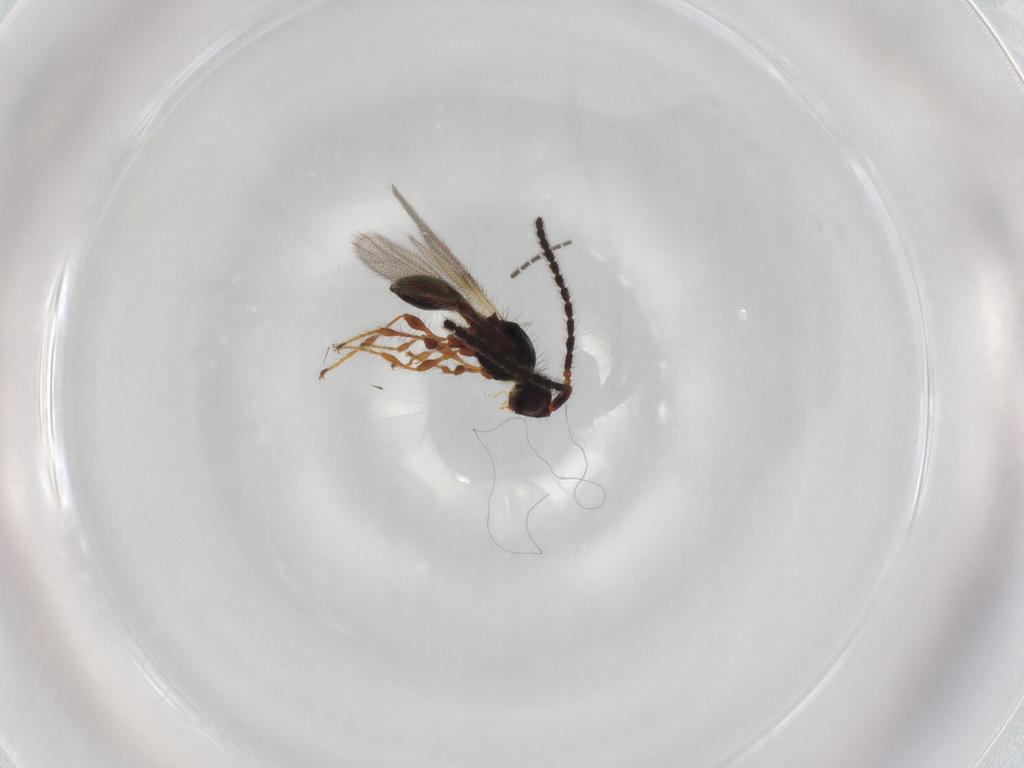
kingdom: Animalia
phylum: Arthropoda
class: Insecta
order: Hymenoptera
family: Diapriidae
